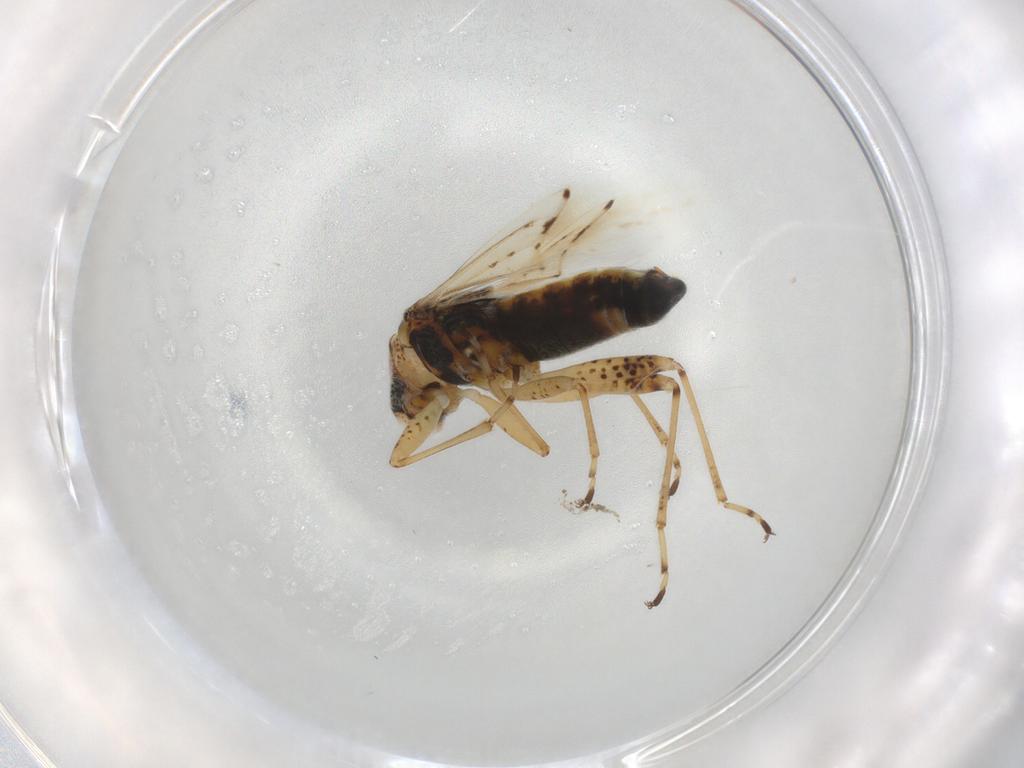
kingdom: Animalia
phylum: Arthropoda
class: Insecta
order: Hemiptera
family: Lygaeidae
